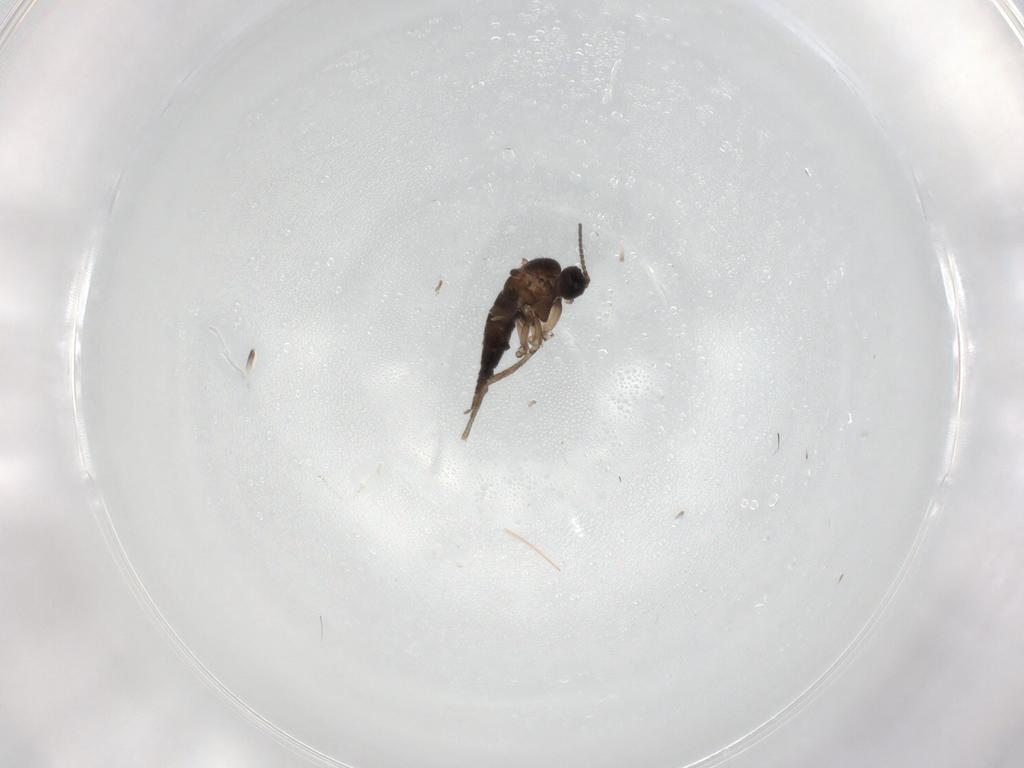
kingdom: Animalia
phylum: Arthropoda
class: Insecta
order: Diptera
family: Sciaridae
